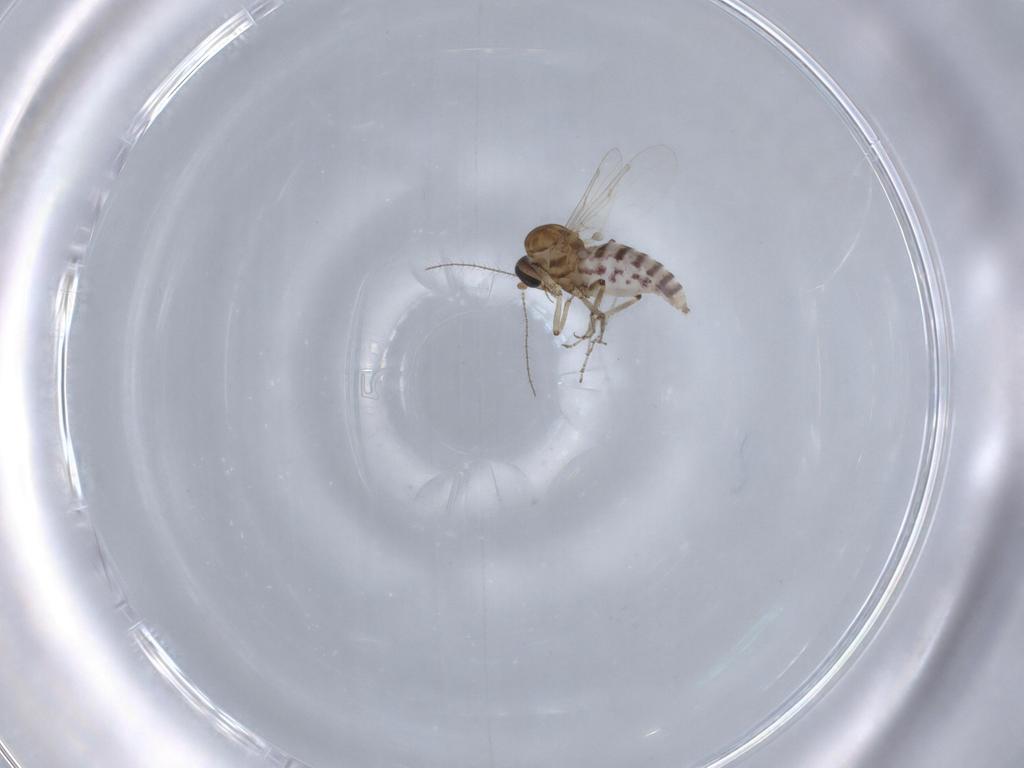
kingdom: Animalia
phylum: Arthropoda
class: Insecta
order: Diptera
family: Ceratopogonidae
